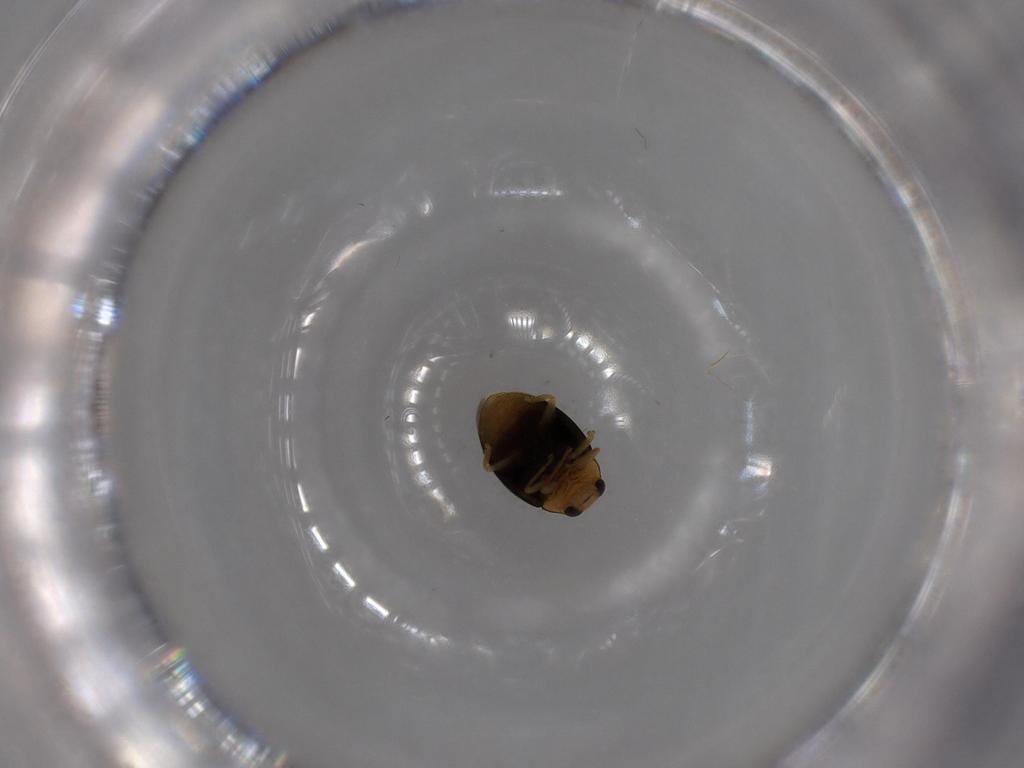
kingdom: Animalia
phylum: Arthropoda
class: Insecta
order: Coleoptera
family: Coccinellidae
